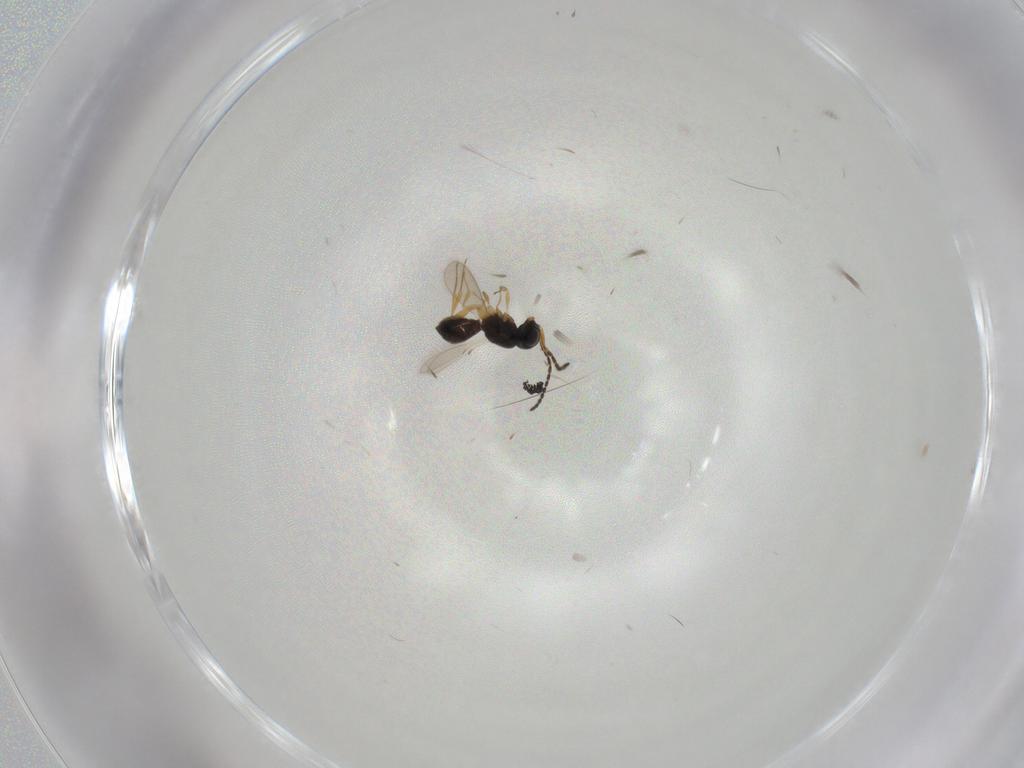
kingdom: Animalia
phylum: Arthropoda
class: Insecta
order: Hymenoptera
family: Scelionidae
